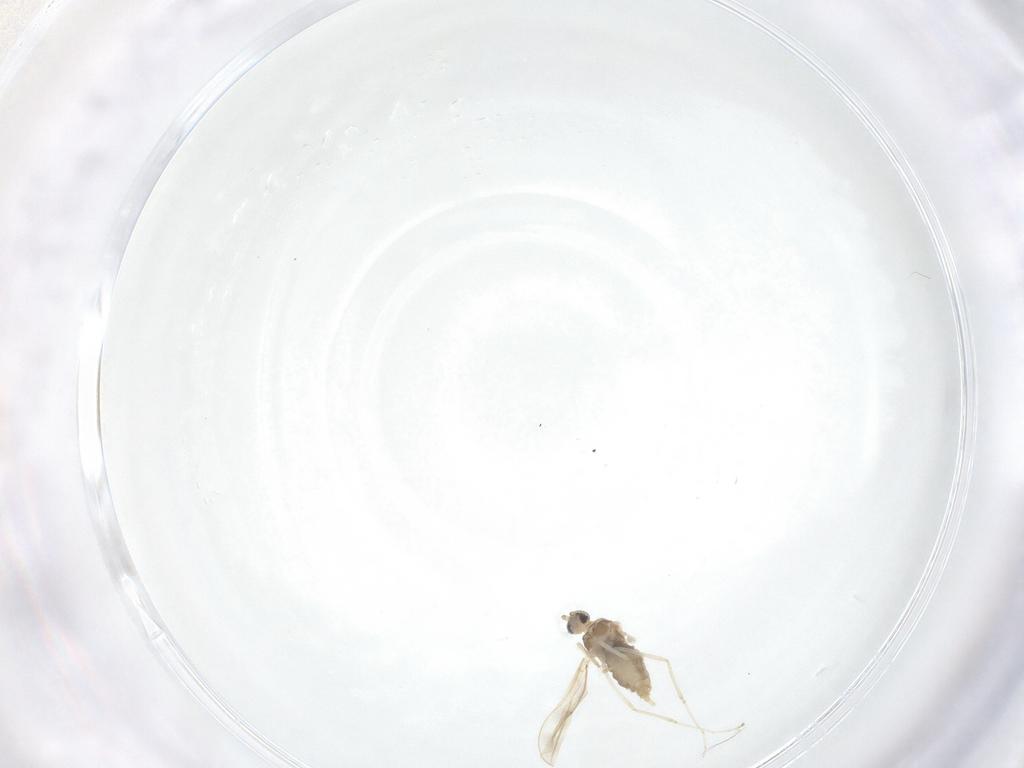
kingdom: Animalia
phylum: Arthropoda
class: Insecta
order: Diptera
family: Cecidomyiidae
